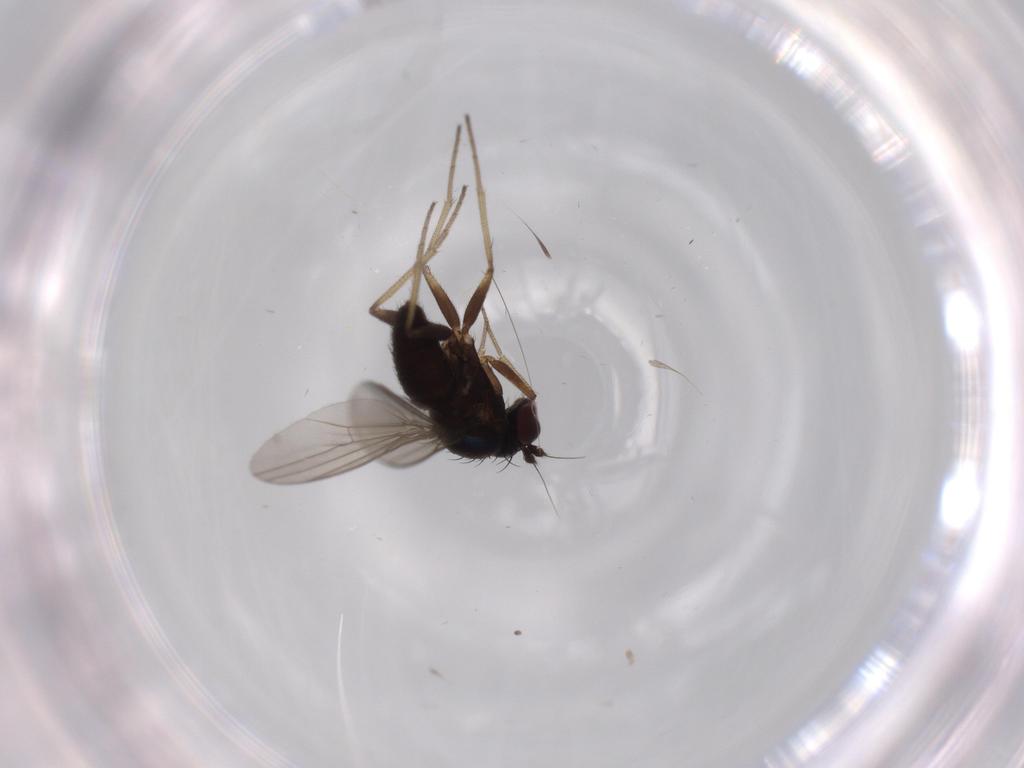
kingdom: Animalia
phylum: Arthropoda
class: Insecta
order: Diptera
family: Dolichopodidae
